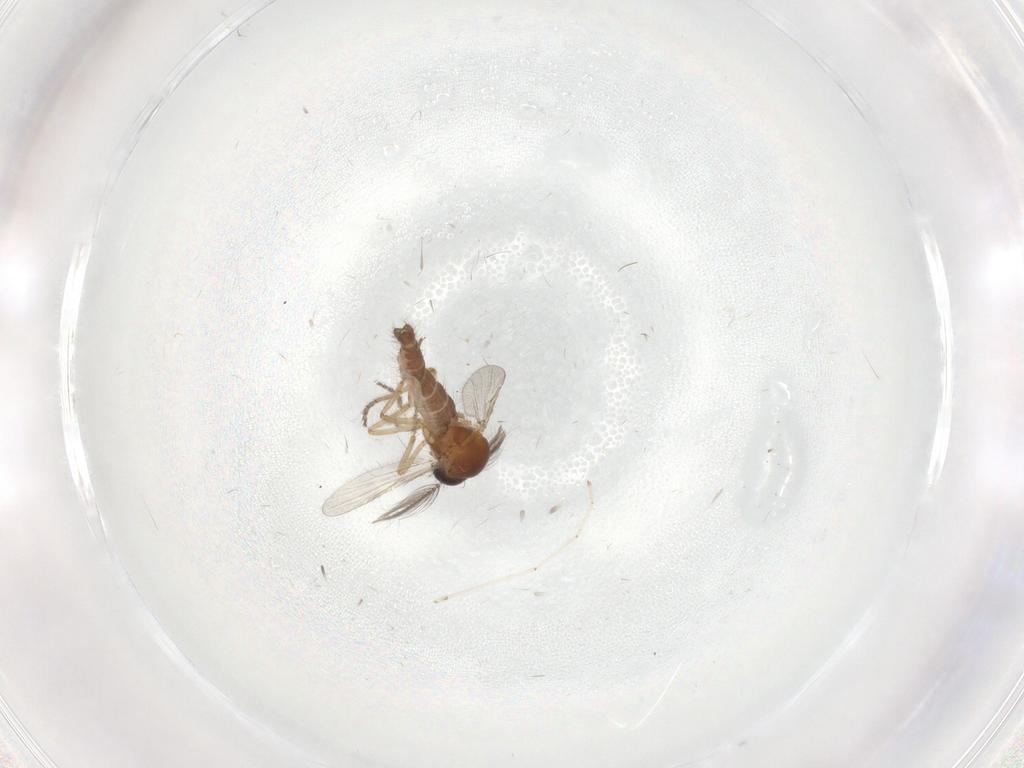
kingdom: Animalia
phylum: Arthropoda
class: Insecta
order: Diptera
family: Ceratopogonidae
